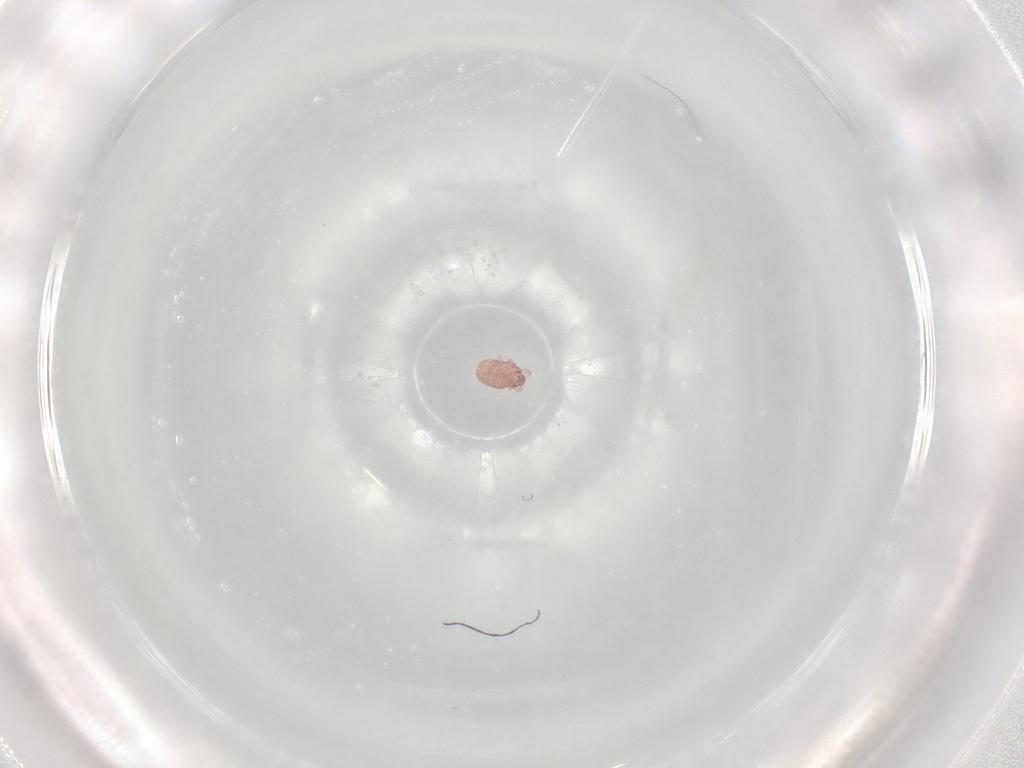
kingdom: Animalia
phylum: Arthropoda
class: Arachnida
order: Sarcoptiformes
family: Alycidae
